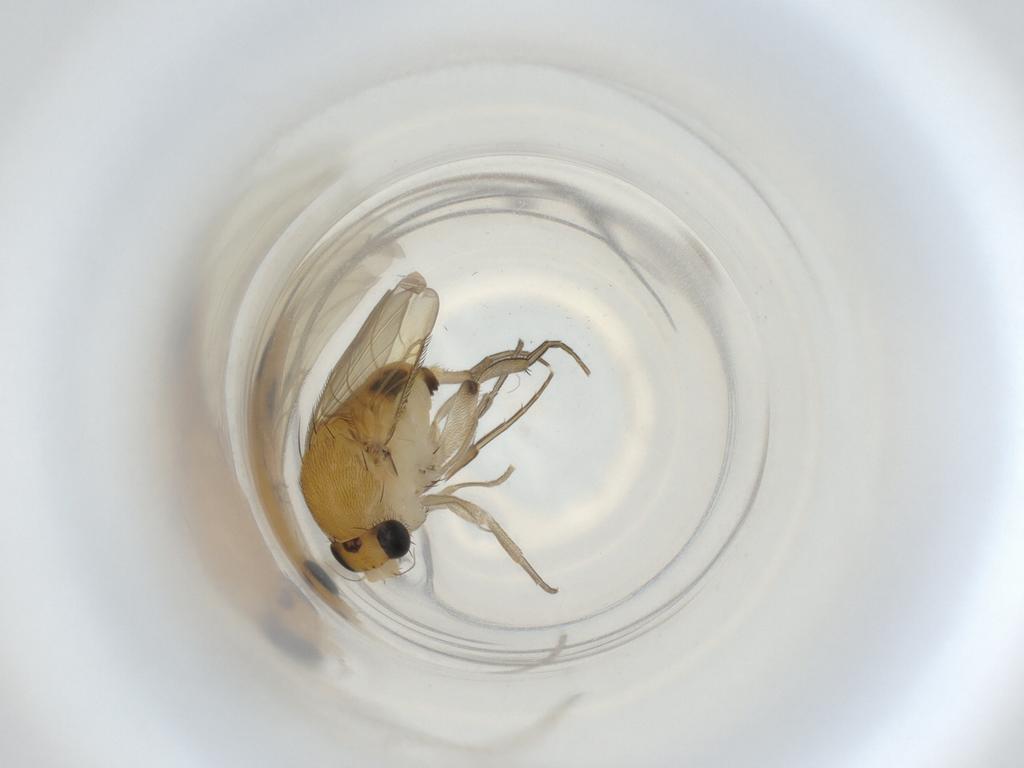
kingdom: Animalia
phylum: Arthropoda
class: Insecta
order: Diptera
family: Phoridae
